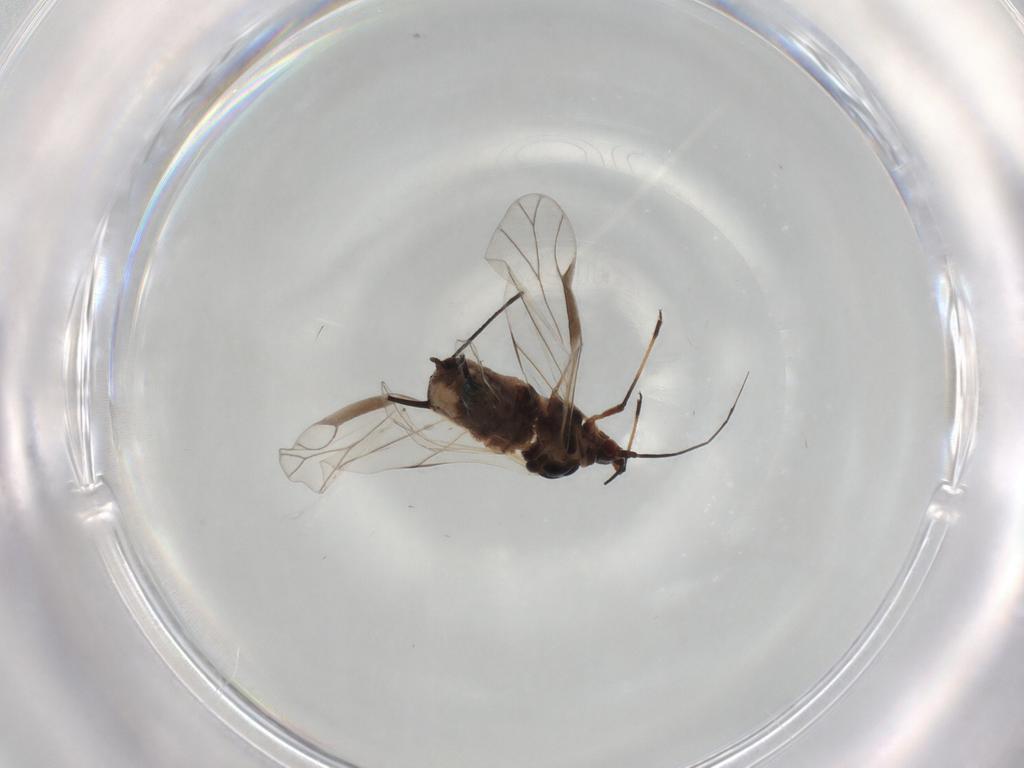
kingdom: Animalia
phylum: Arthropoda
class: Insecta
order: Hemiptera
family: Aphididae
